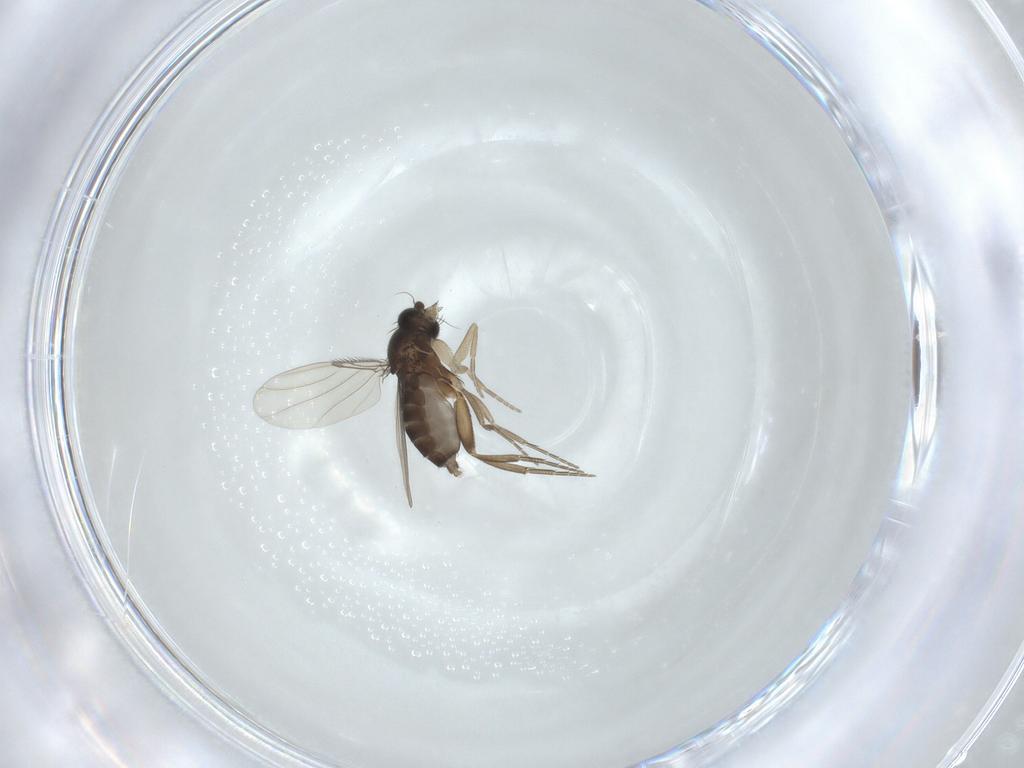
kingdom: Animalia
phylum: Arthropoda
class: Insecta
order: Diptera
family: Phoridae
